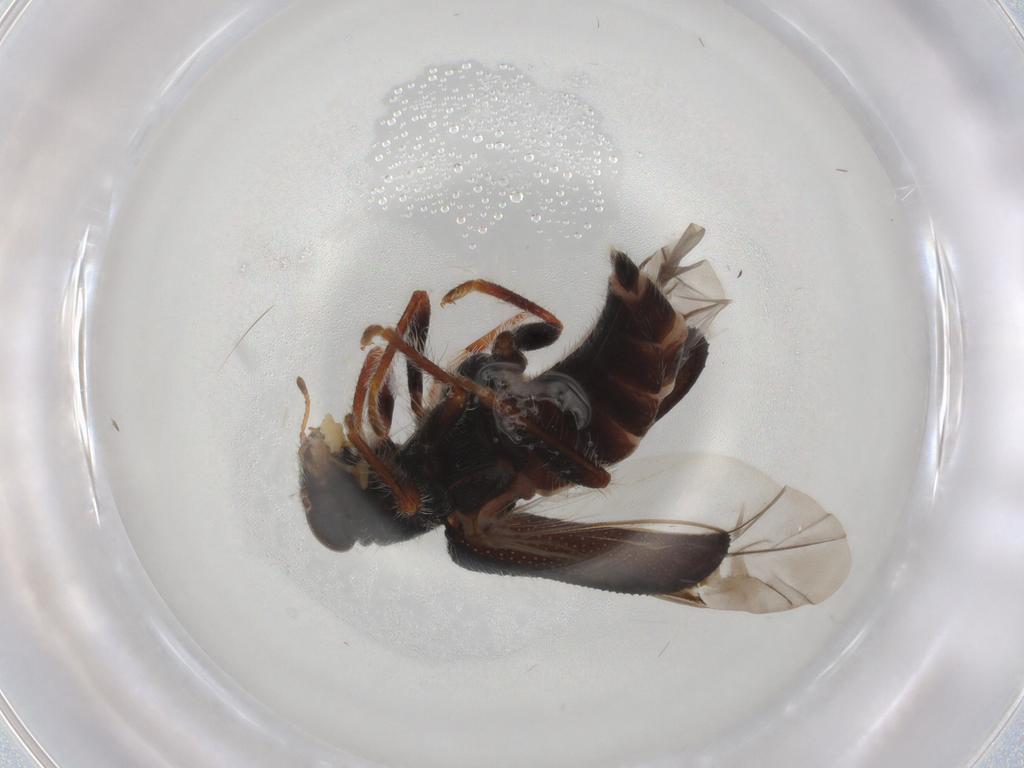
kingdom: Animalia
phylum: Arthropoda
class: Insecta
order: Coleoptera
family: Cleridae
